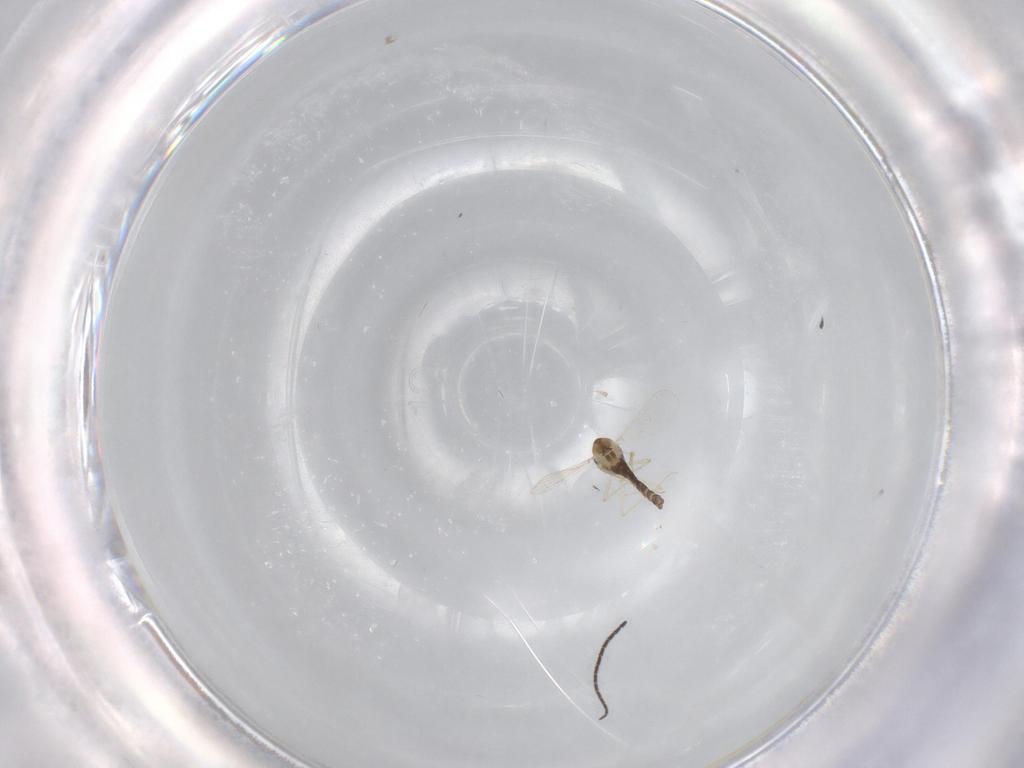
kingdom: Animalia
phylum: Arthropoda
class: Insecta
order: Diptera
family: Chironomidae
